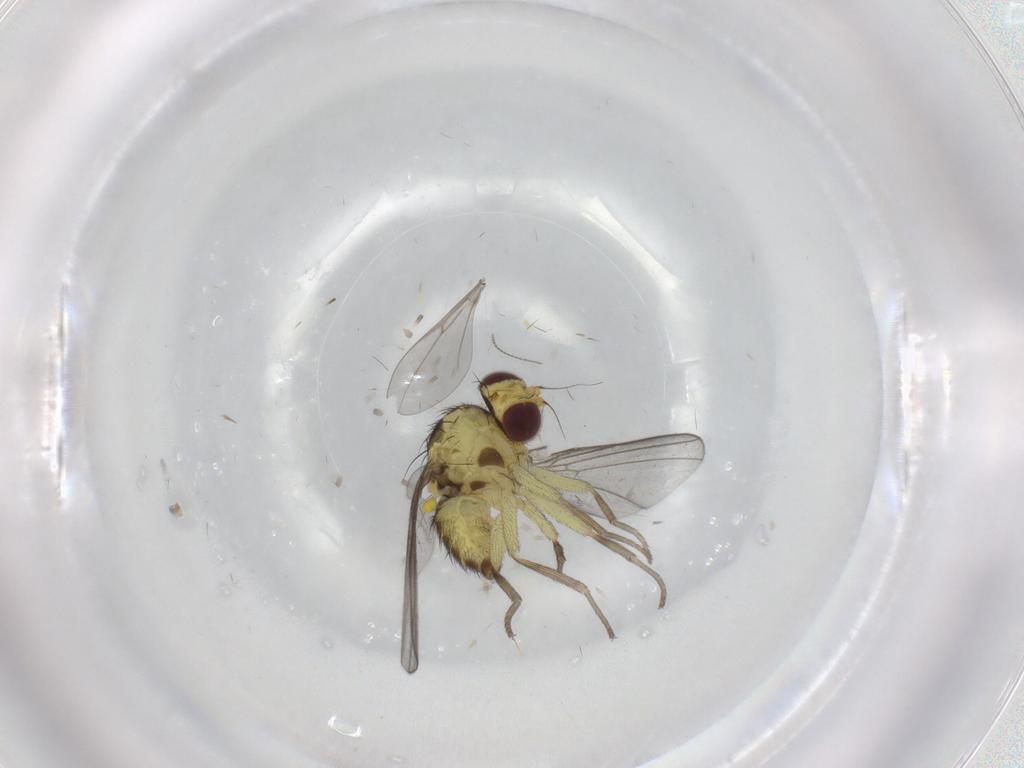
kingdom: Animalia
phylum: Arthropoda
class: Insecta
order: Diptera
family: Agromyzidae
